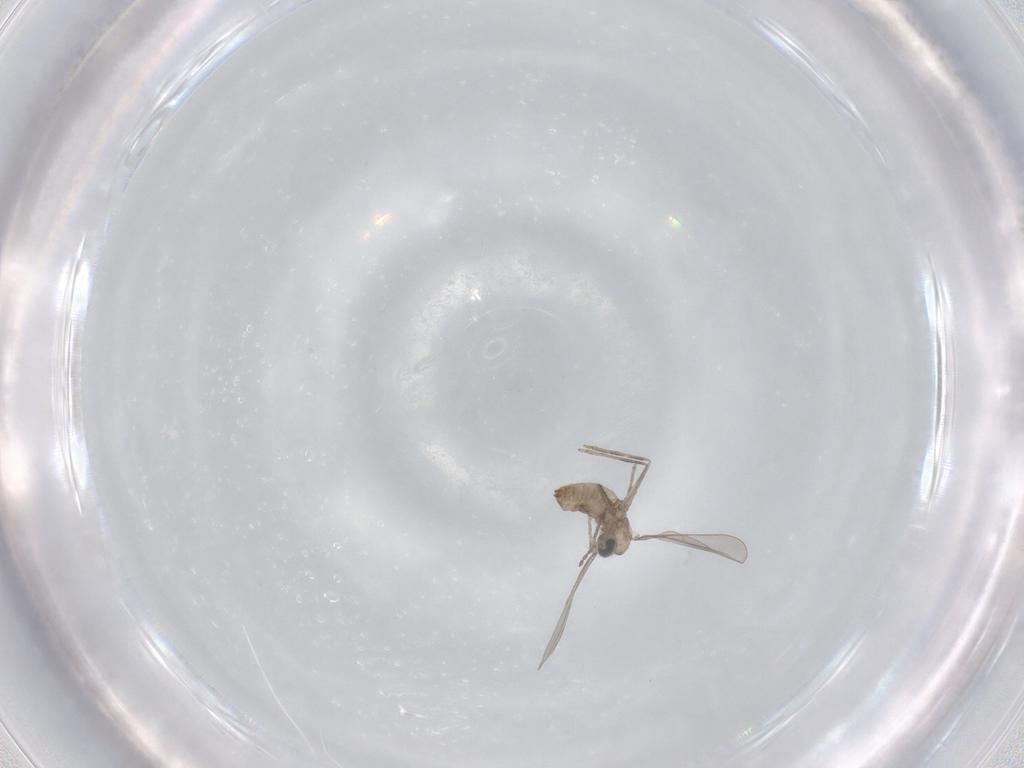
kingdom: Animalia
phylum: Arthropoda
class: Insecta
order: Diptera
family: Cecidomyiidae
